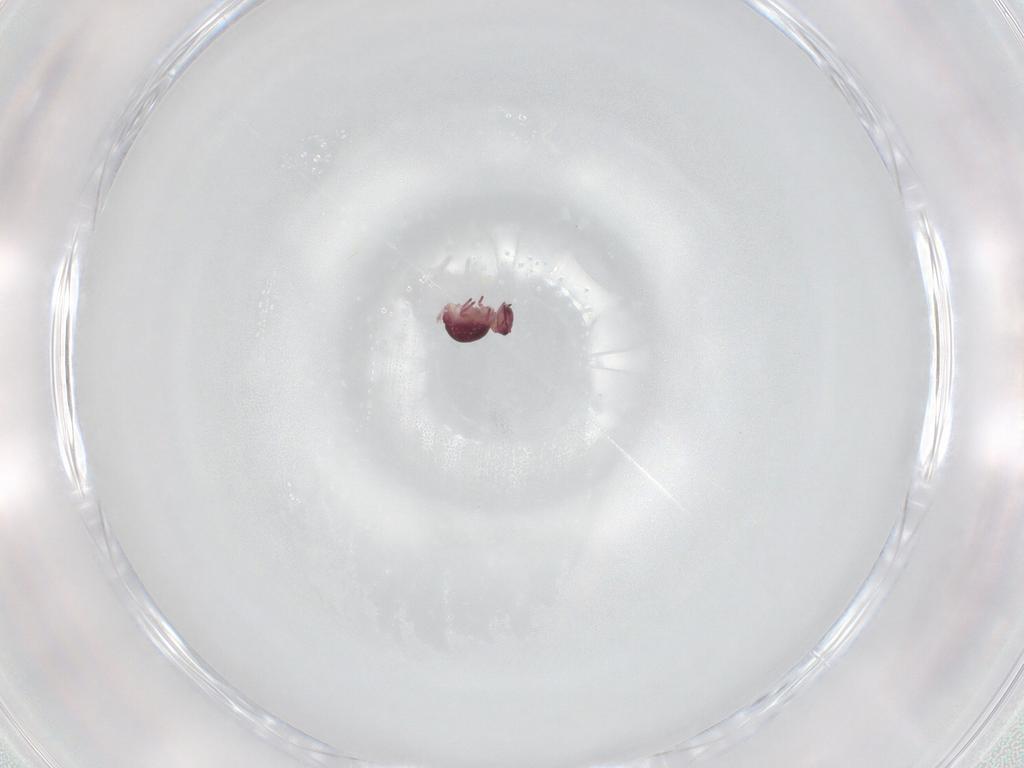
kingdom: Animalia
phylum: Arthropoda
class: Collembola
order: Symphypleona
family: Sminthurididae
